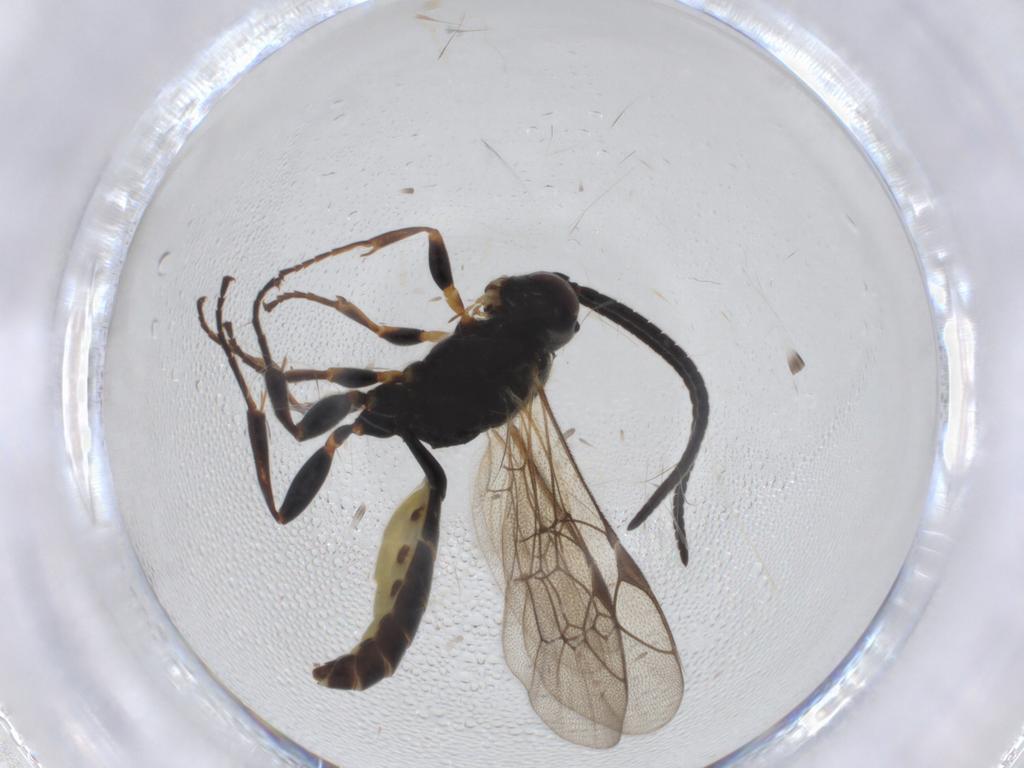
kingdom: Animalia
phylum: Arthropoda
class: Insecta
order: Hymenoptera
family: Ichneumonidae
